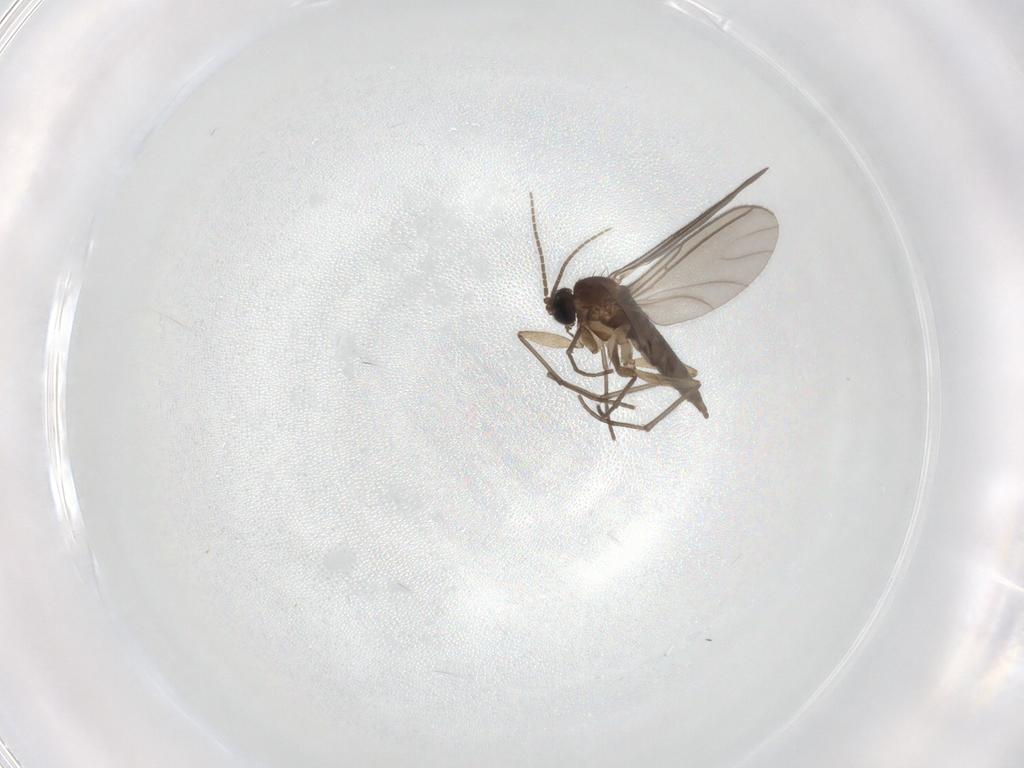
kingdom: Animalia
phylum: Arthropoda
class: Insecta
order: Diptera
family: Sciaridae
